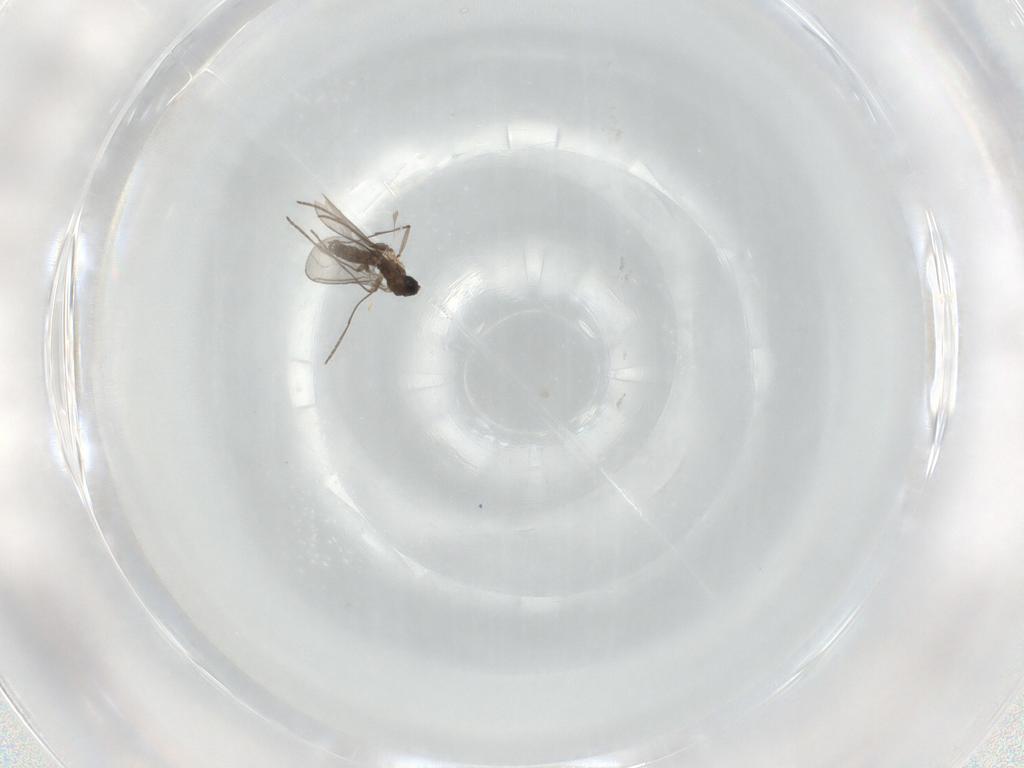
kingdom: Animalia
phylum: Arthropoda
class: Insecta
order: Diptera
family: Sciaridae
